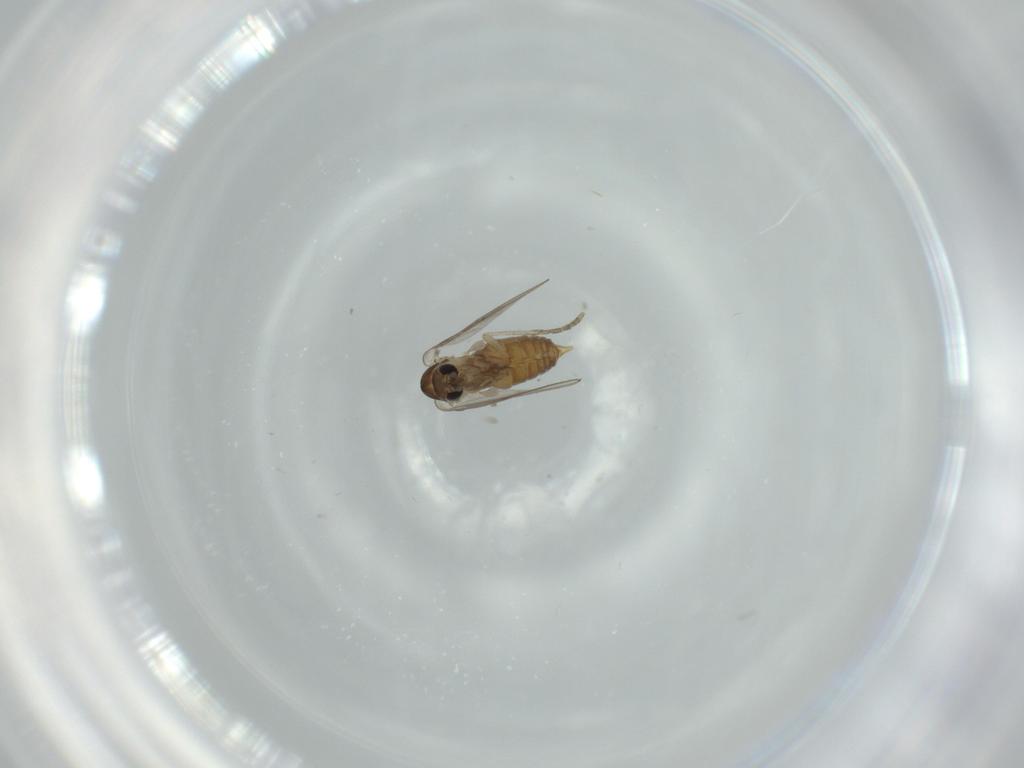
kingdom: Animalia
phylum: Arthropoda
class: Insecta
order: Diptera
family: Psychodidae
